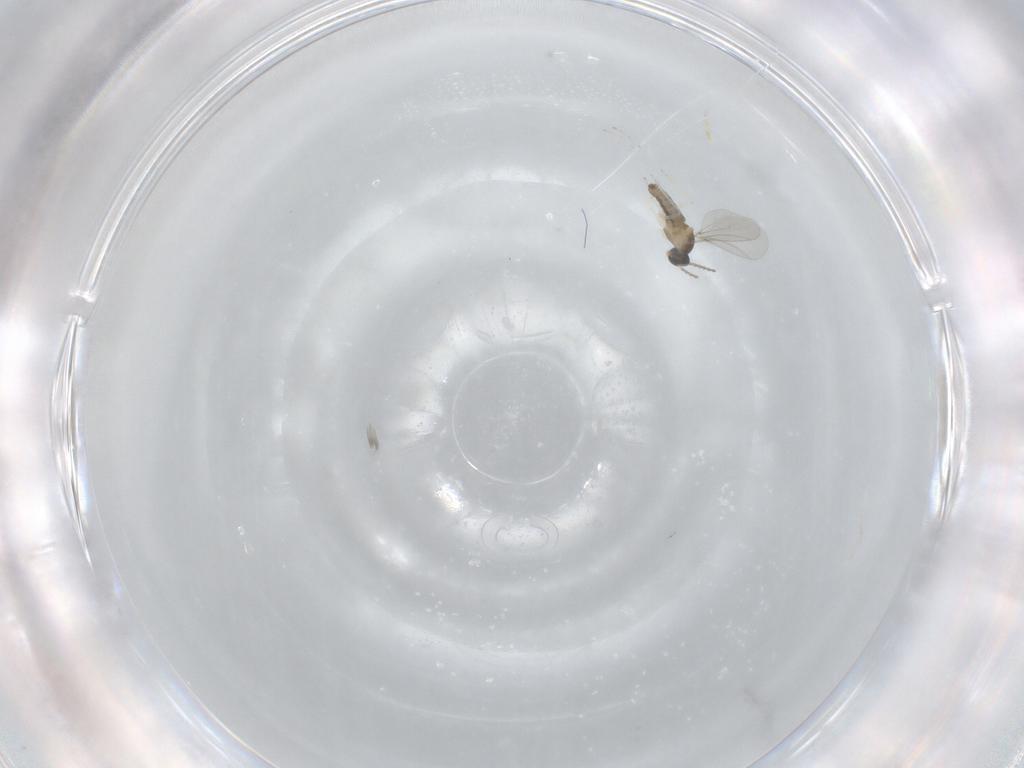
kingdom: Animalia
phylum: Arthropoda
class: Insecta
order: Diptera
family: Cecidomyiidae
